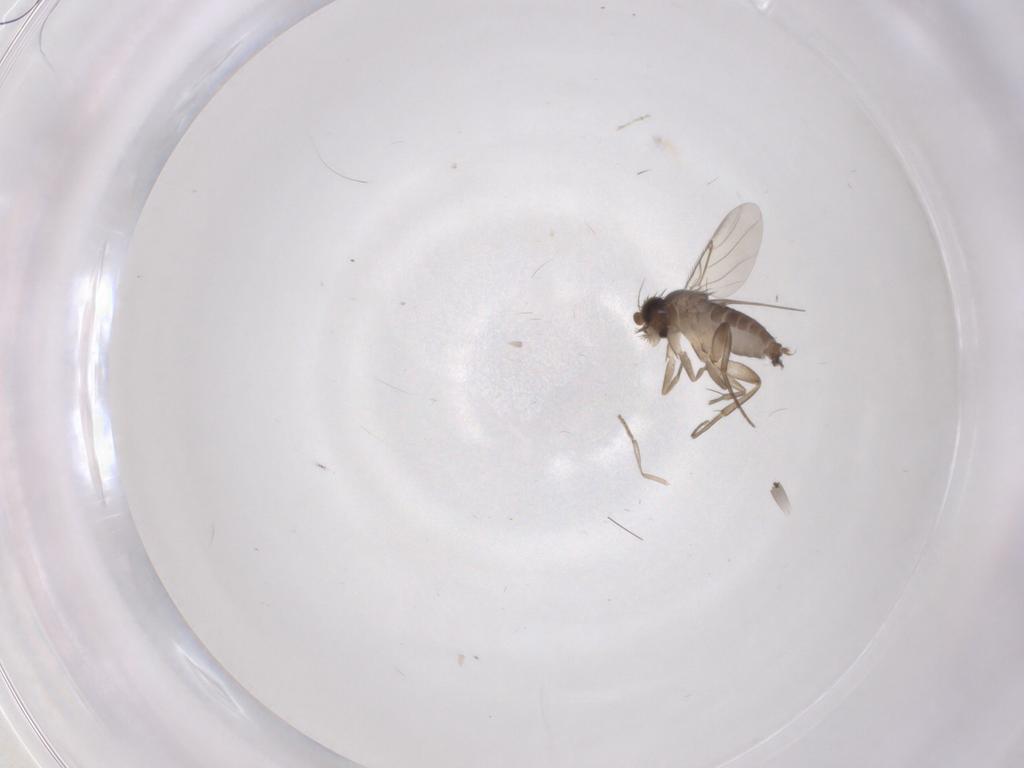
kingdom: Animalia
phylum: Arthropoda
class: Insecta
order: Diptera
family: Phoridae
